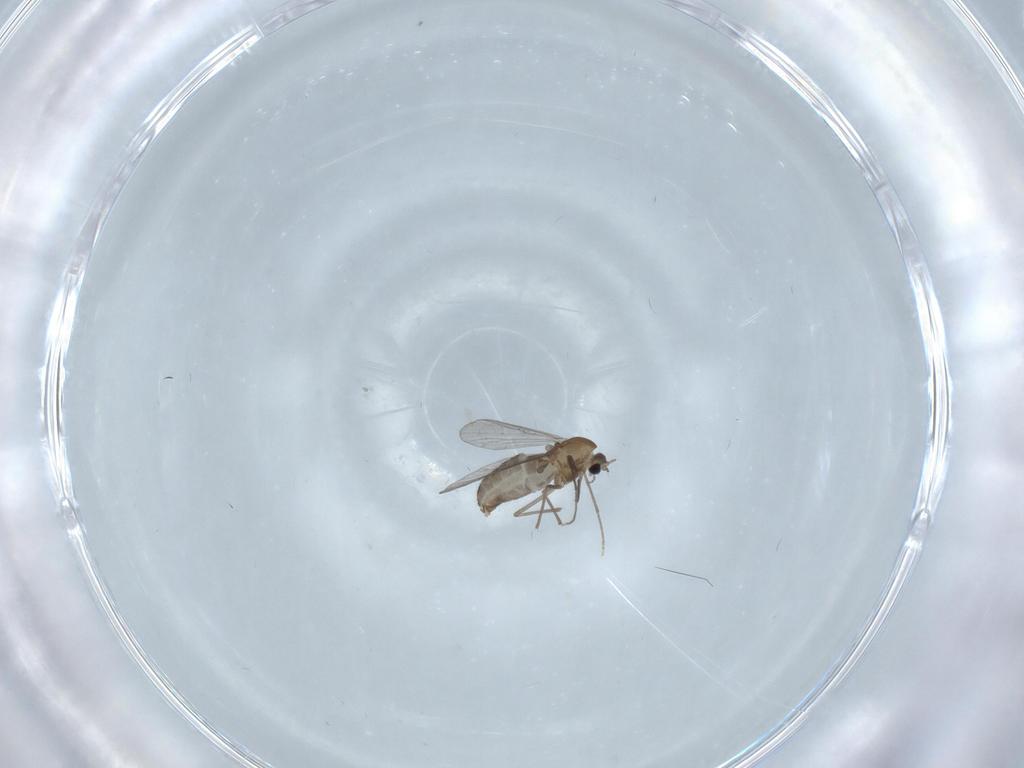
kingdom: Animalia
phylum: Arthropoda
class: Insecta
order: Diptera
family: Chironomidae
